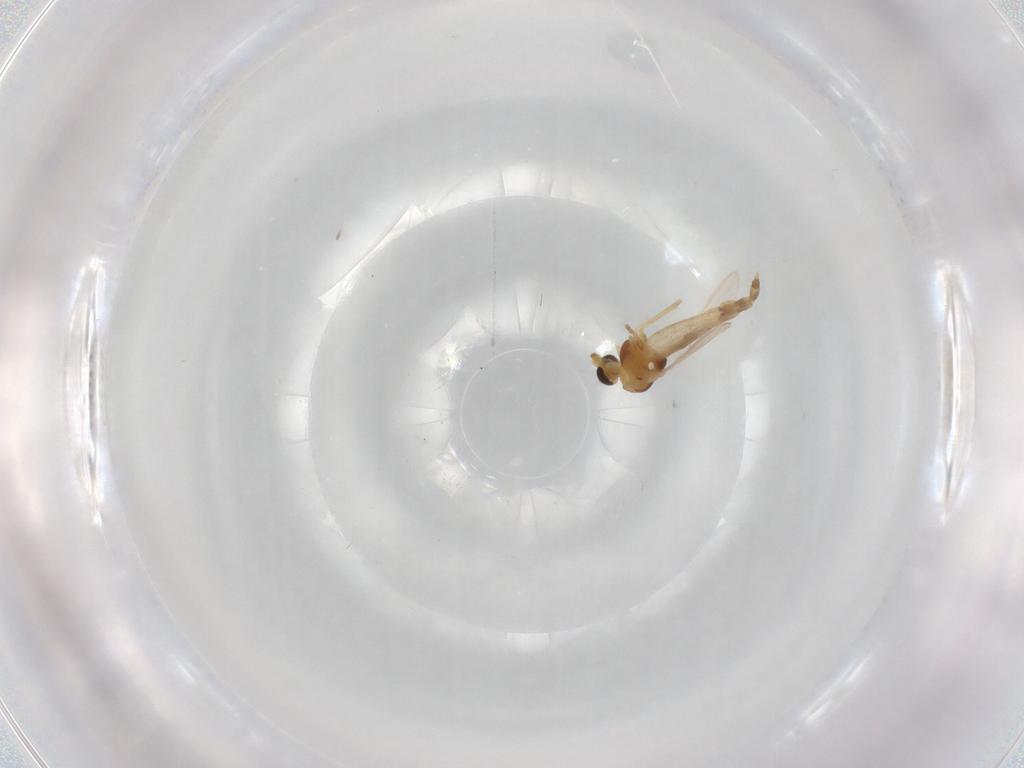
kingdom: Animalia
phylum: Arthropoda
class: Insecta
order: Diptera
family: Chironomidae
